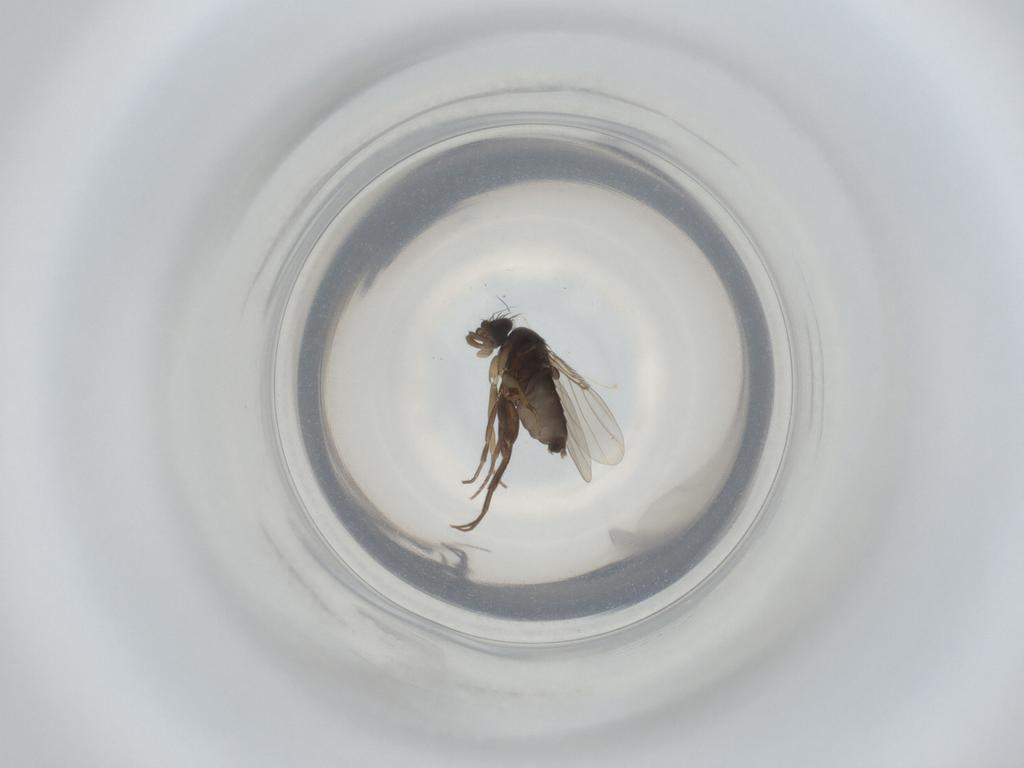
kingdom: Animalia
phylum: Arthropoda
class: Insecta
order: Diptera
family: Phoridae
